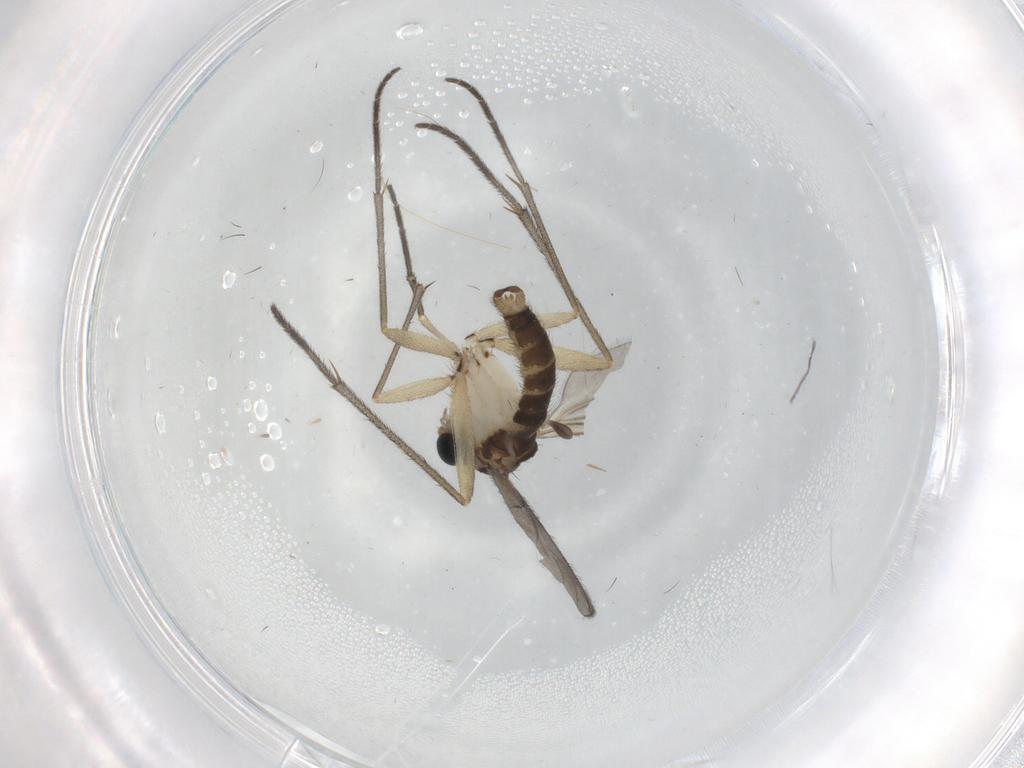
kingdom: Animalia
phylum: Arthropoda
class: Insecta
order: Diptera
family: Sciaridae
